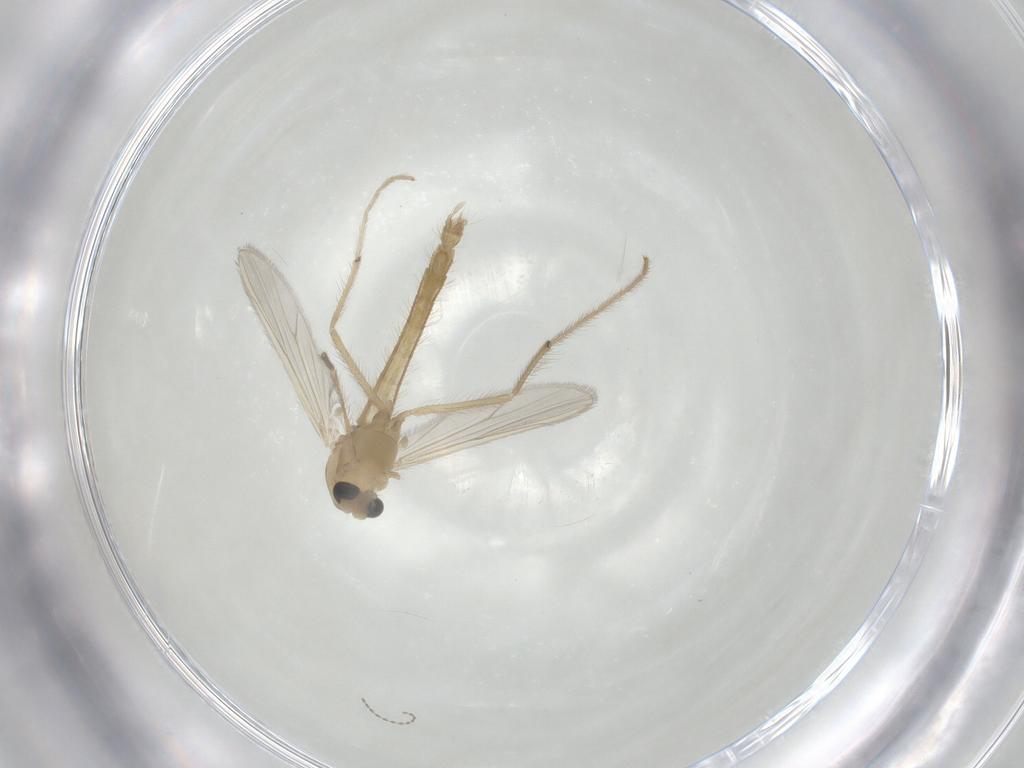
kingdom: Animalia
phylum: Arthropoda
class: Insecta
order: Diptera
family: Chironomidae
